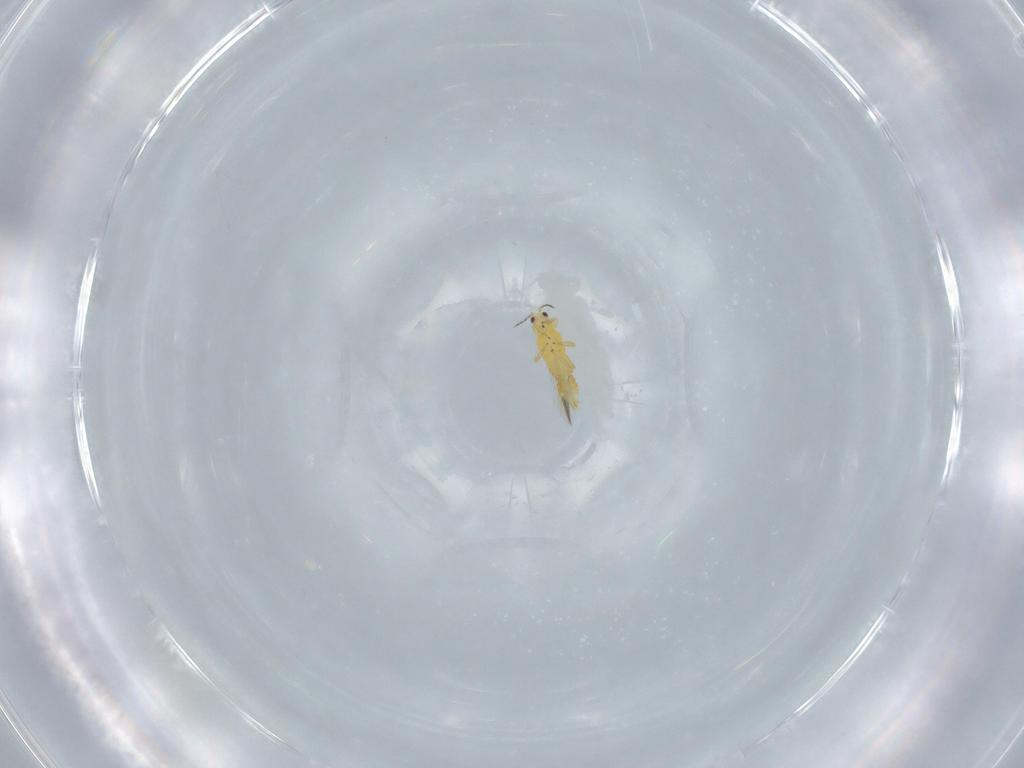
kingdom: Animalia
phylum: Arthropoda
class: Insecta
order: Thysanoptera
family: Thripidae
